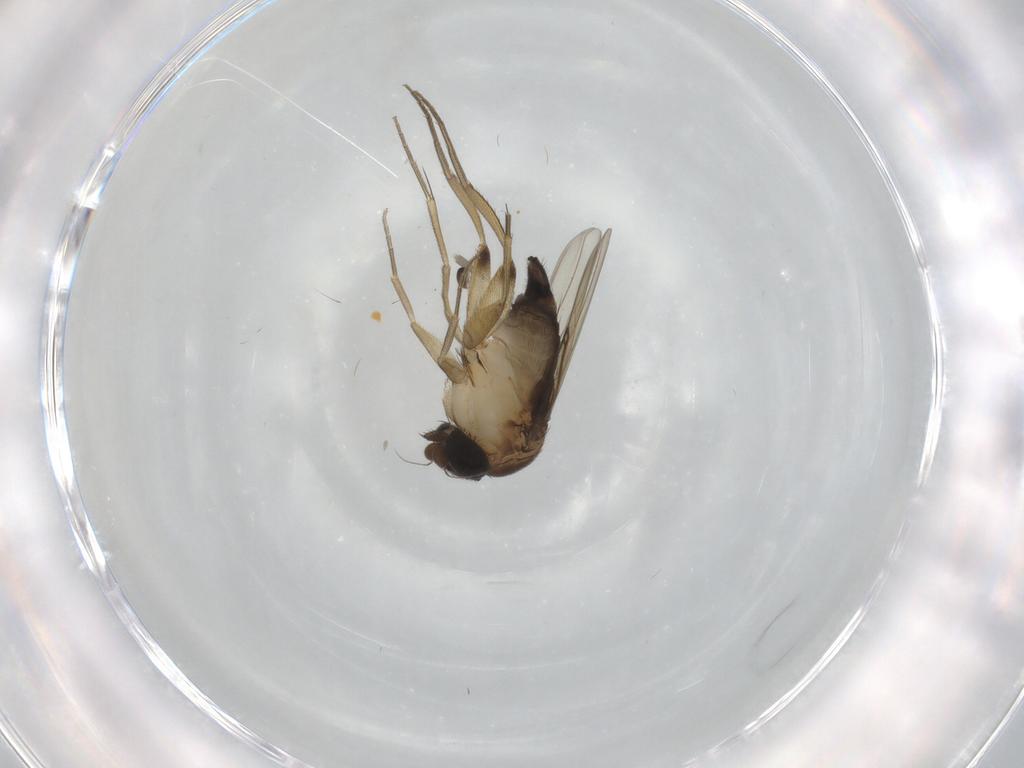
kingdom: Animalia
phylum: Arthropoda
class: Insecta
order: Diptera
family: Phoridae
